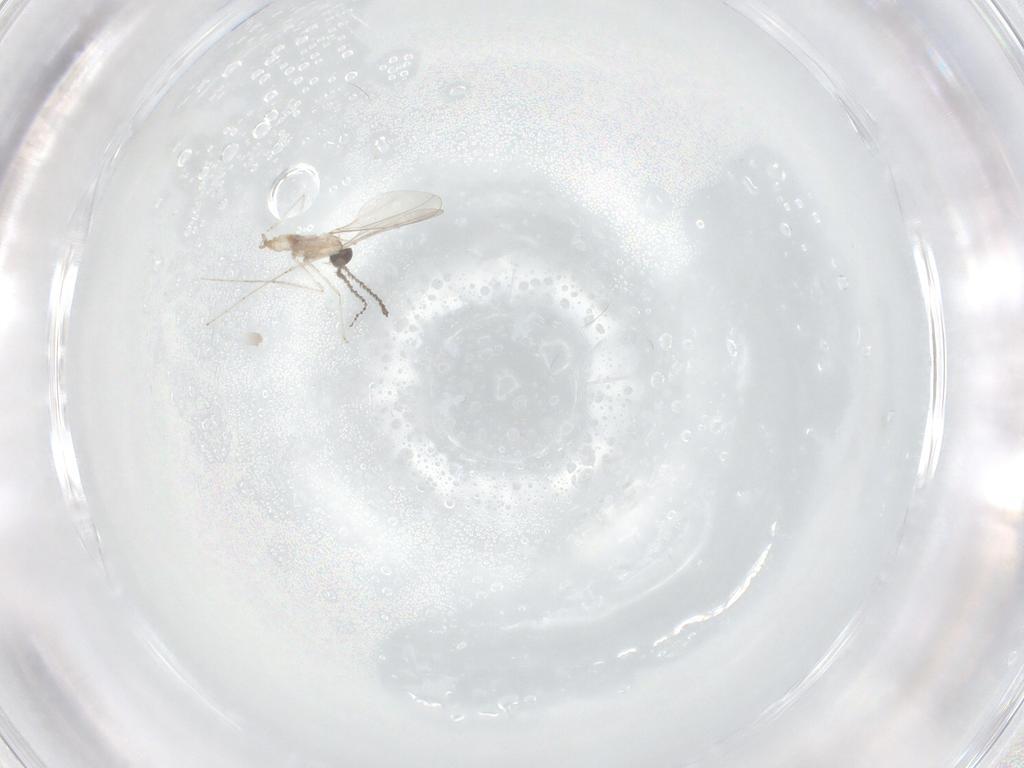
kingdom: Animalia
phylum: Arthropoda
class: Insecta
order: Diptera
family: Cecidomyiidae
